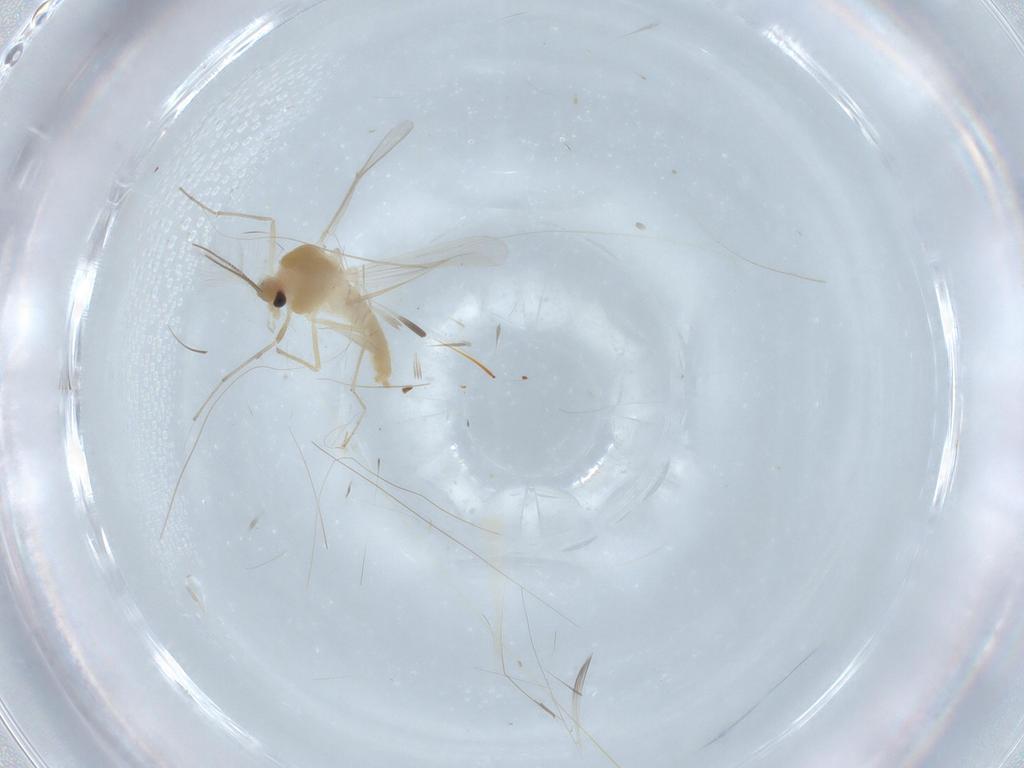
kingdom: Animalia
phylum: Arthropoda
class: Insecta
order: Diptera
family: Chironomidae
